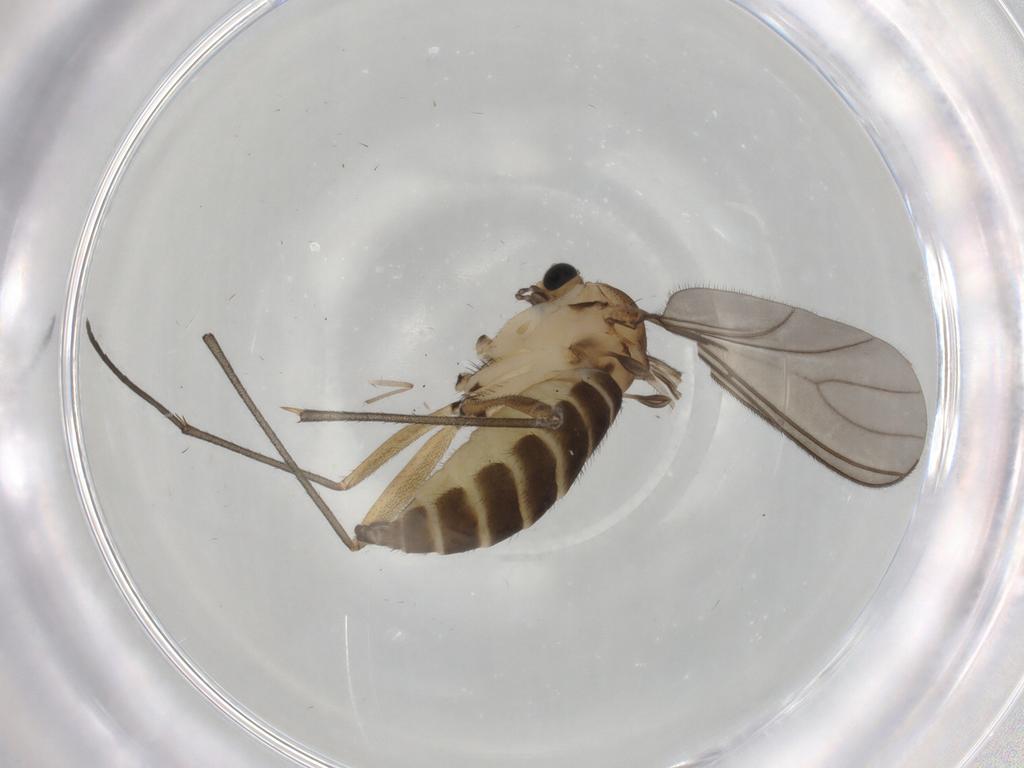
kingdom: Animalia
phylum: Arthropoda
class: Insecta
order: Diptera
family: Sciaridae
